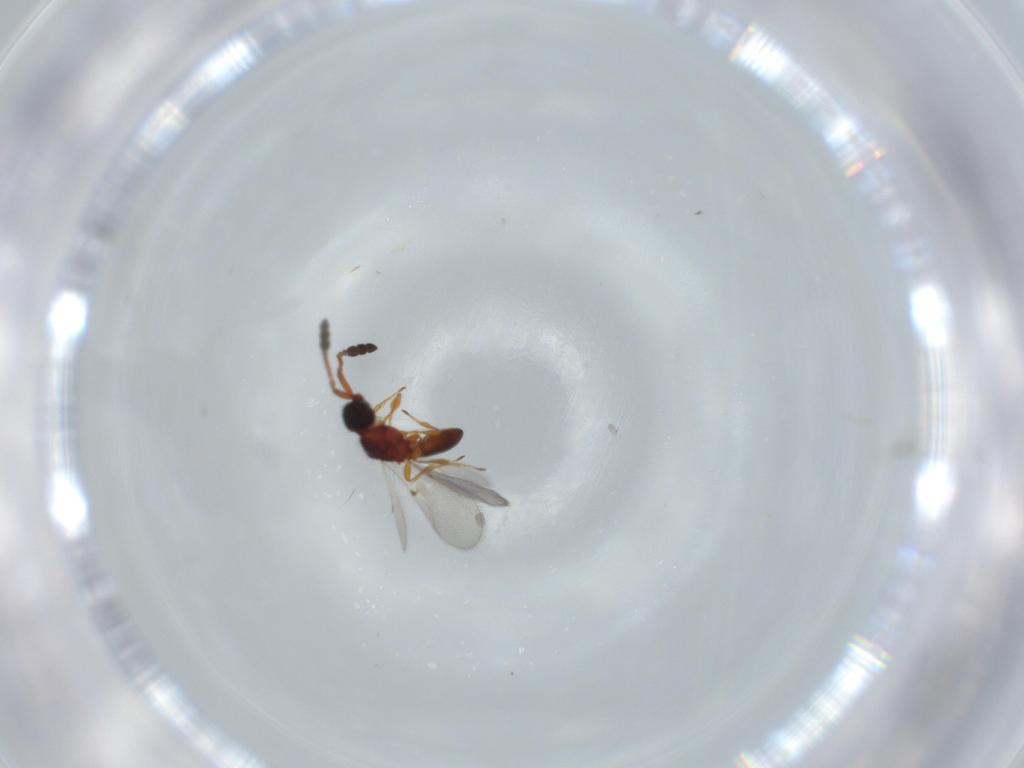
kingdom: Animalia
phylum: Arthropoda
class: Insecta
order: Hymenoptera
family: Diapriidae
